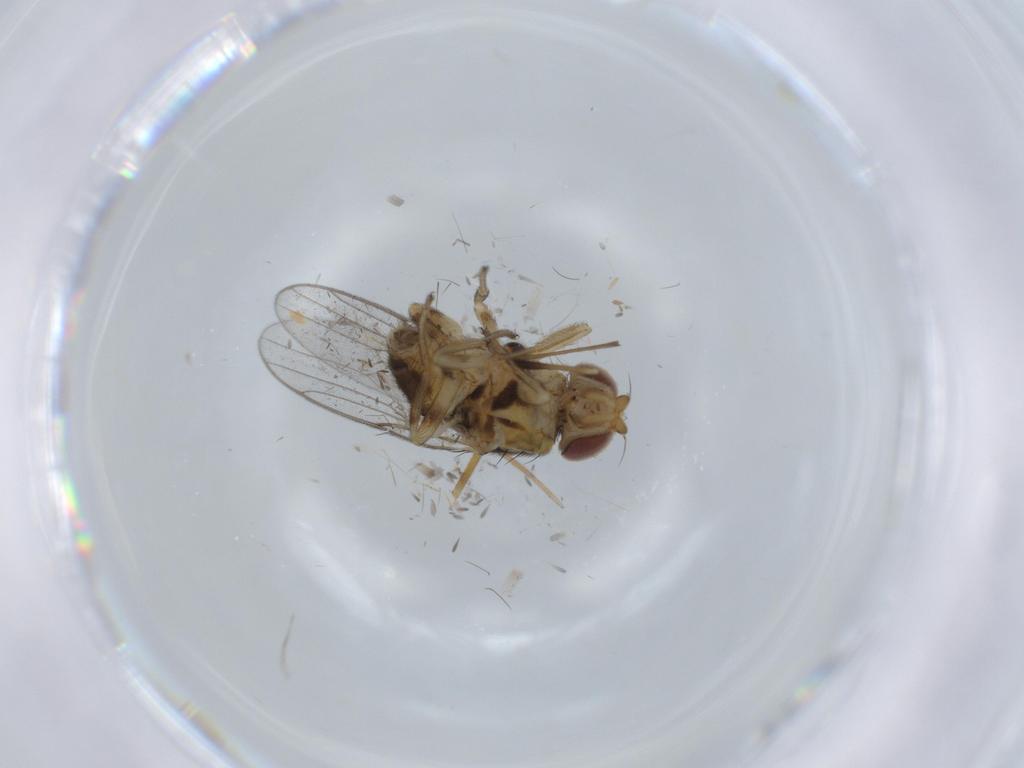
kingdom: Animalia
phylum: Arthropoda
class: Insecta
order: Diptera
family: Chloropidae
